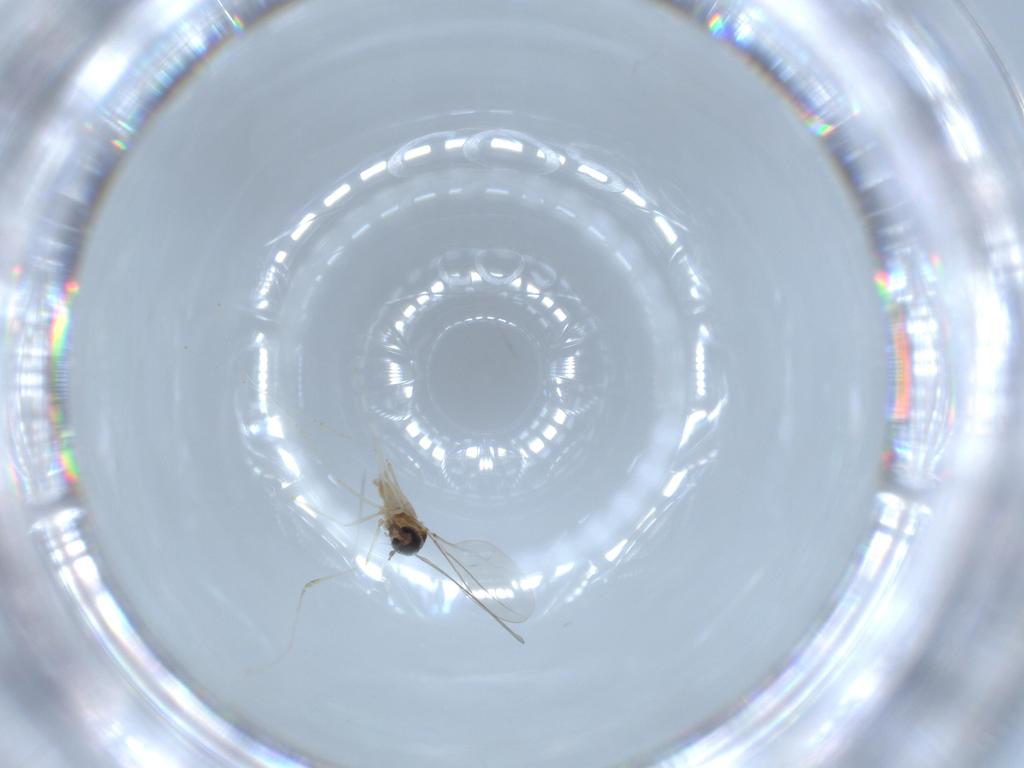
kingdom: Animalia
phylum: Arthropoda
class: Insecta
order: Diptera
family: Cecidomyiidae
